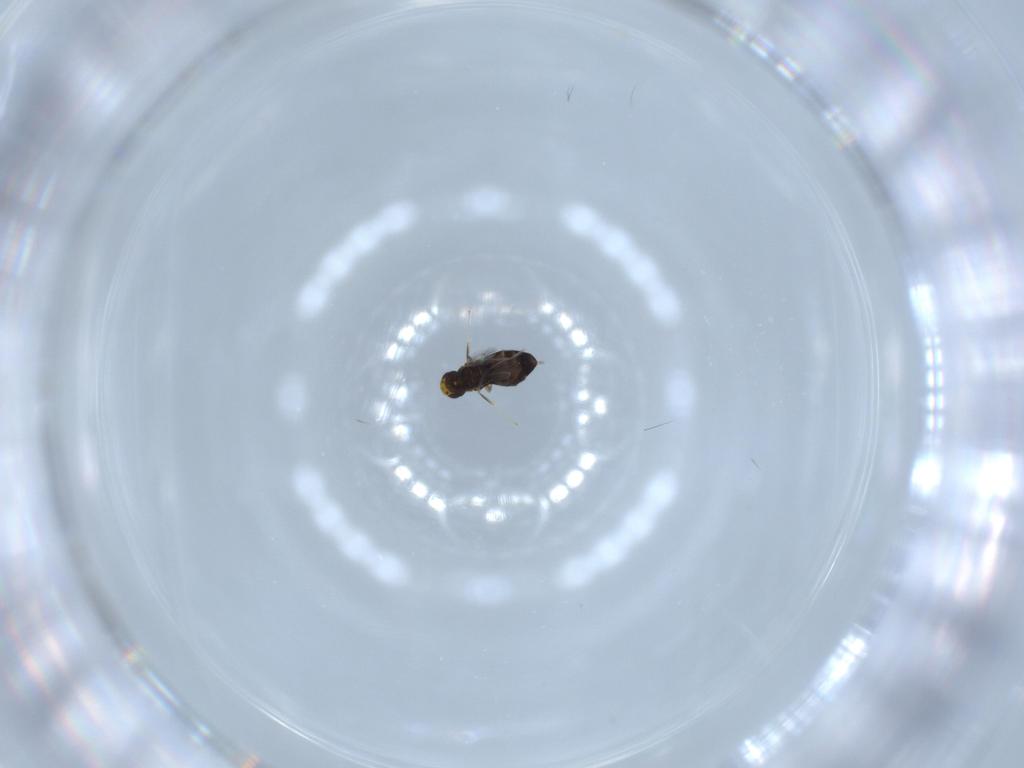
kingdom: Animalia
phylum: Arthropoda
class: Insecta
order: Hymenoptera
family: Signiphoridae
